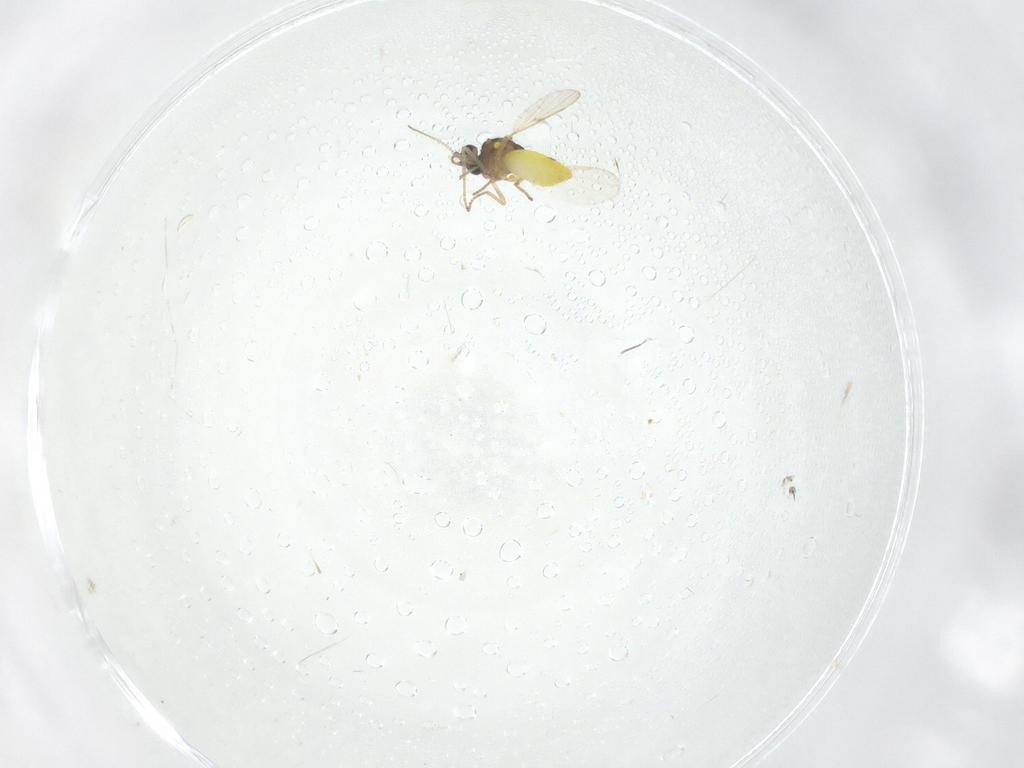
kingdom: Animalia
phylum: Arthropoda
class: Insecta
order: Diptera
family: Ceratopogonidae
